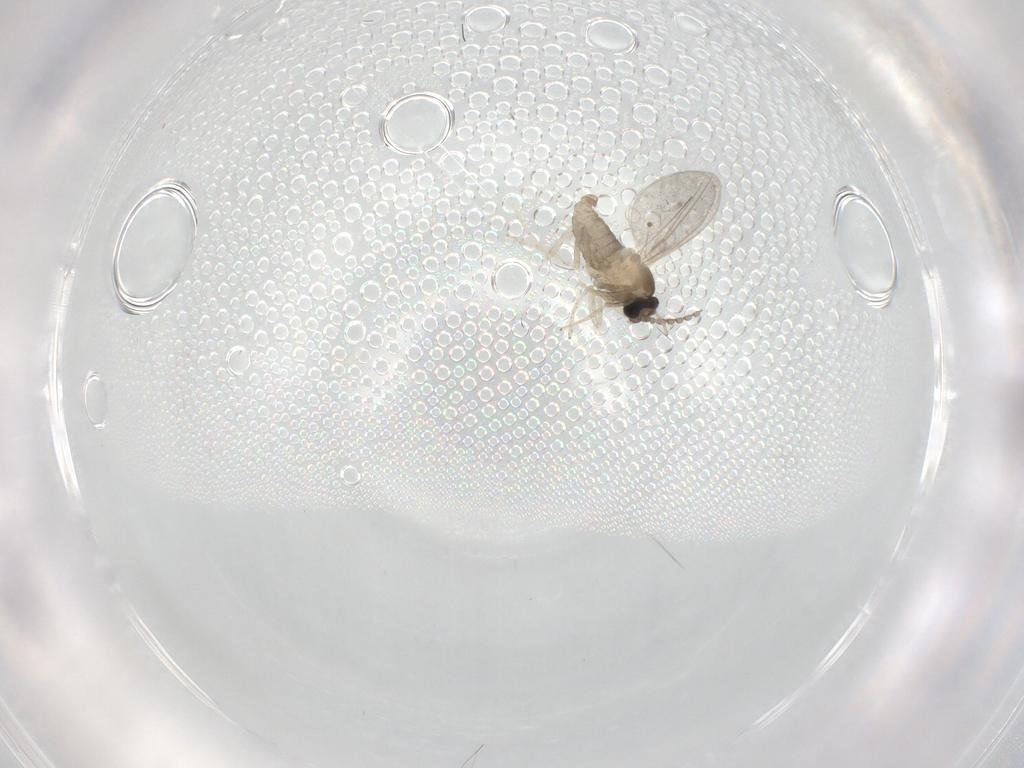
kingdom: Animalia
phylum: Arthropoda
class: Insecta
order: Diptera
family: Cecidomyiidae
